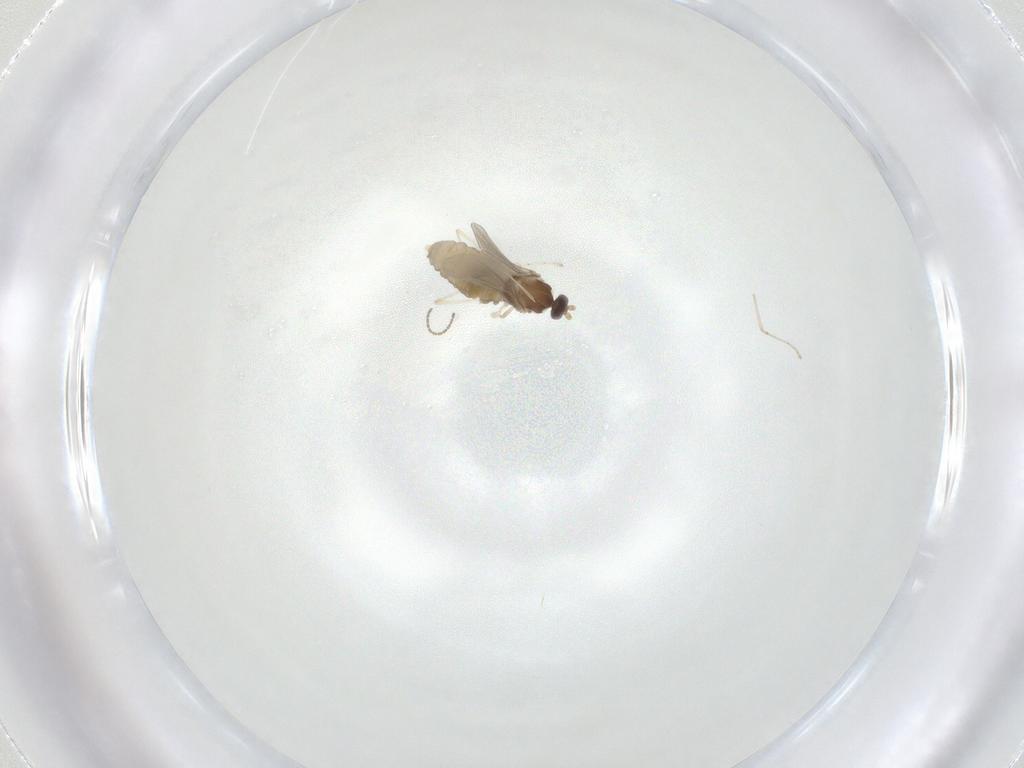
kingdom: Animalia
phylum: Arthropoda
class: Insecta
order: Diptera
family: Cecidomyiidae
